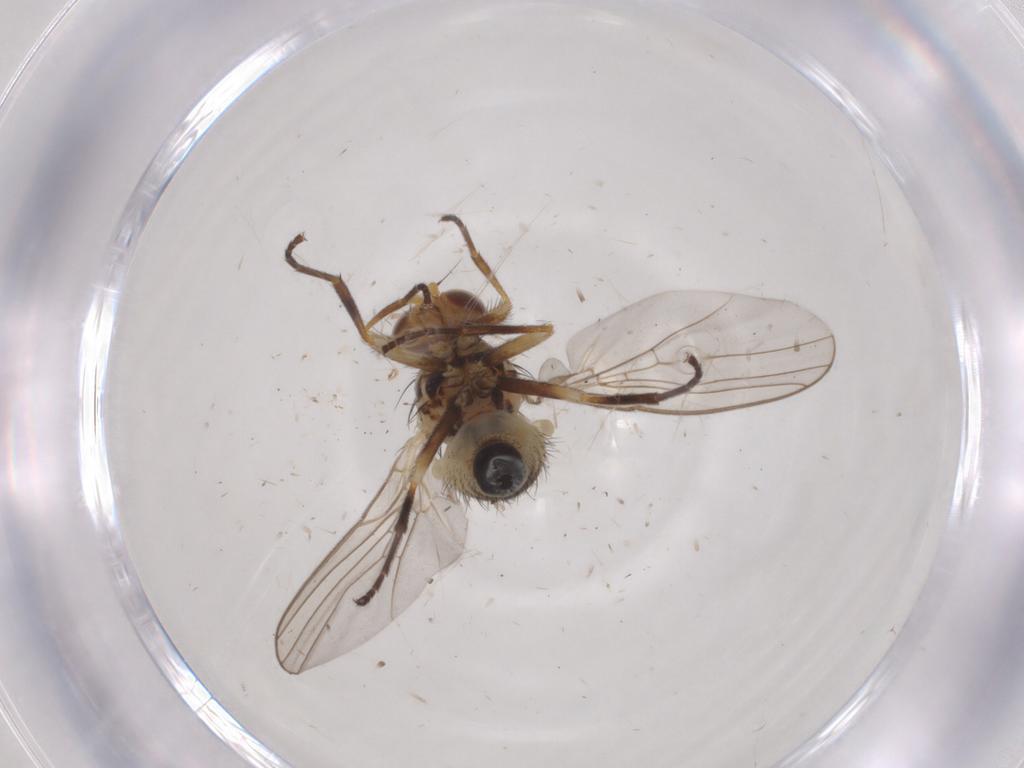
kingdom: Animalia
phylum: Arthropoda
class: Insecta
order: Diptera
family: Agromyzidae
